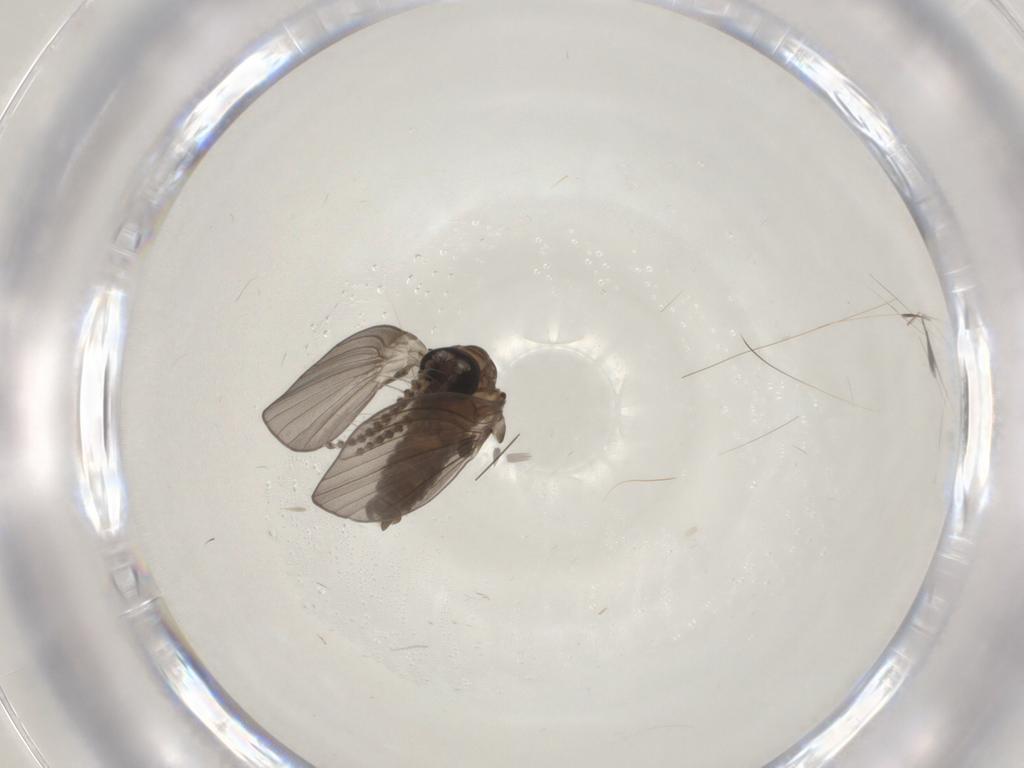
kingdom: Animalia
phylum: Arthropoda
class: Insecta
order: Diptera
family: Psychodidae
